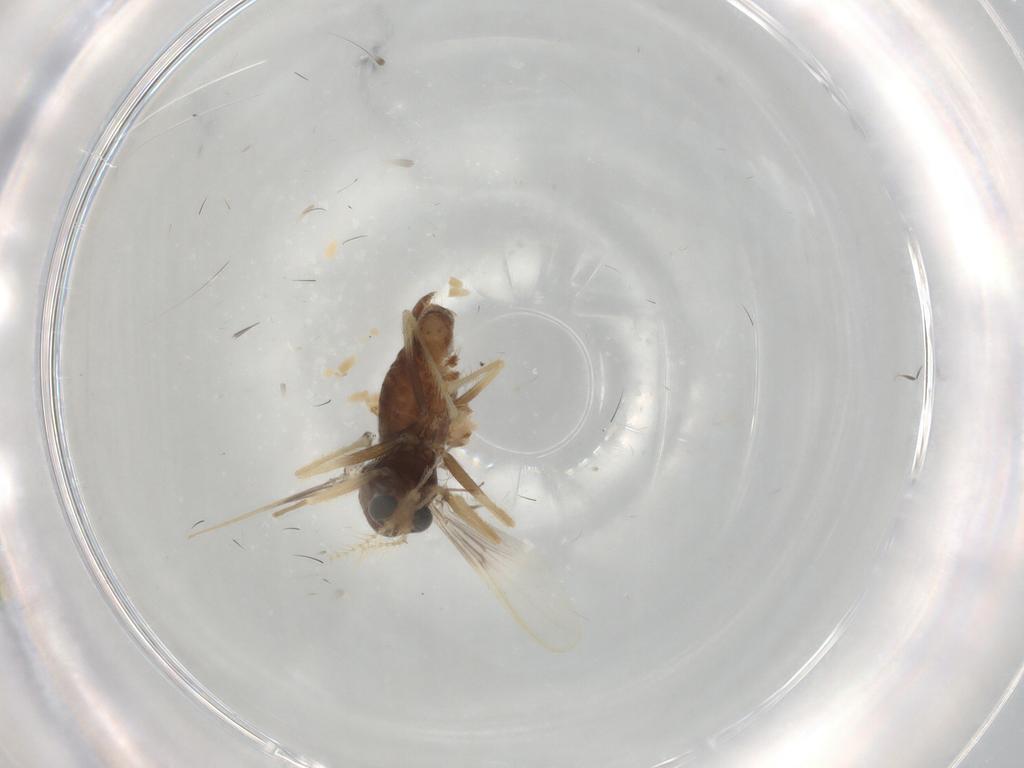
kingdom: Animalia
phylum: Arthropoda
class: Insecta
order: Diptera
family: Chironomidae
